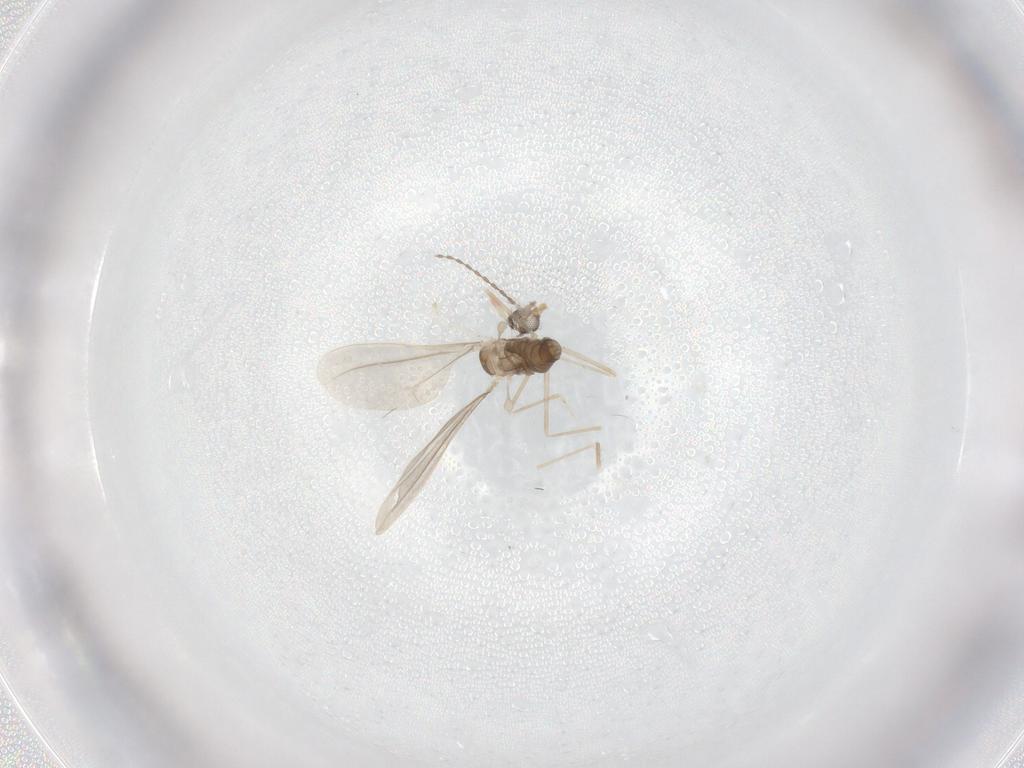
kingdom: Animalia
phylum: Arthropoda
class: Insecta
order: Diptera
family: Cecidomyiidae
